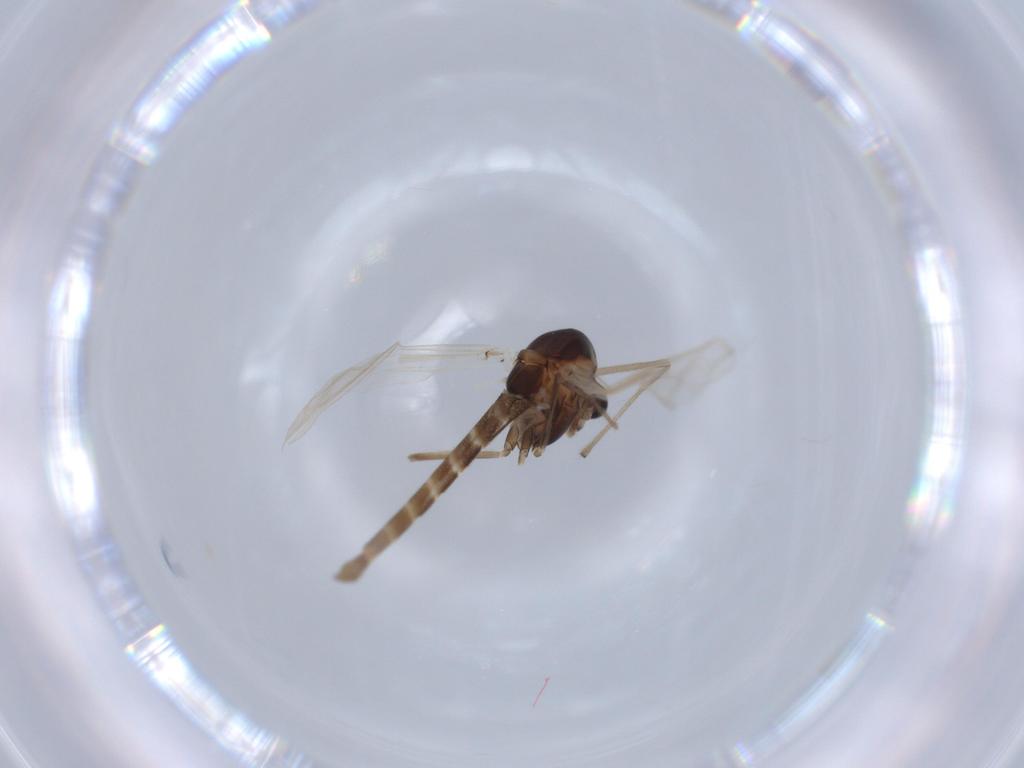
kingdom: Animalia
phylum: Arthropoda
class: Insecta
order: Diptera
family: Chironomidae
